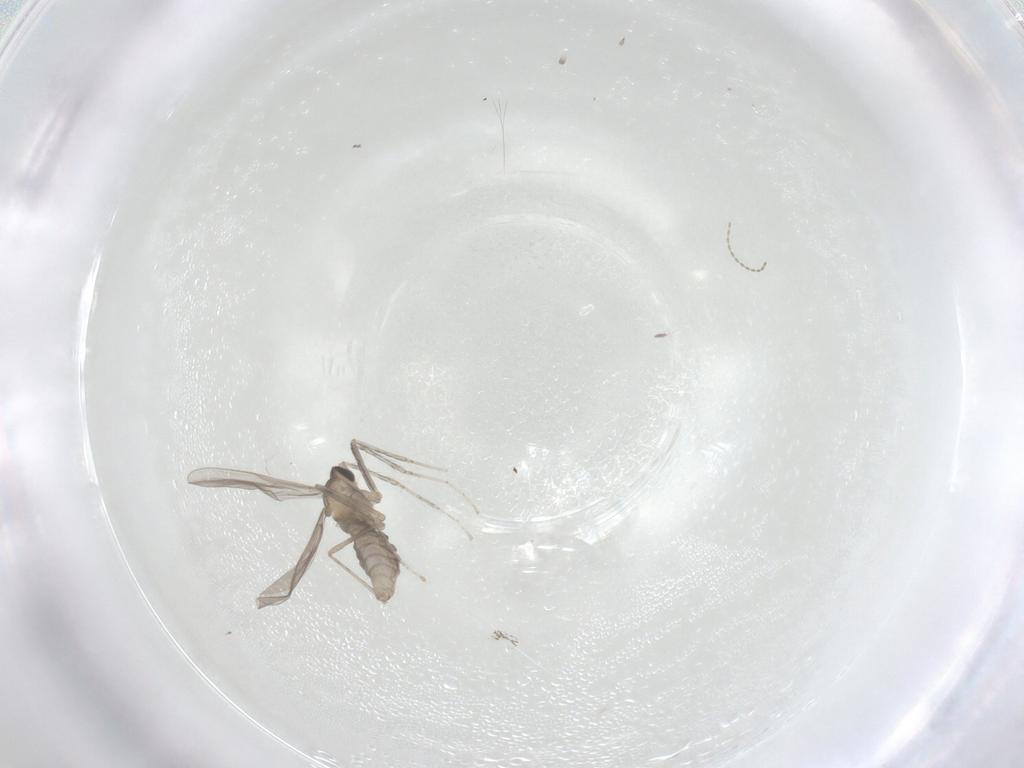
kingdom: Animalia
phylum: Arthropoda
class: Insecta
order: Diptera
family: Cecidomyiidae
